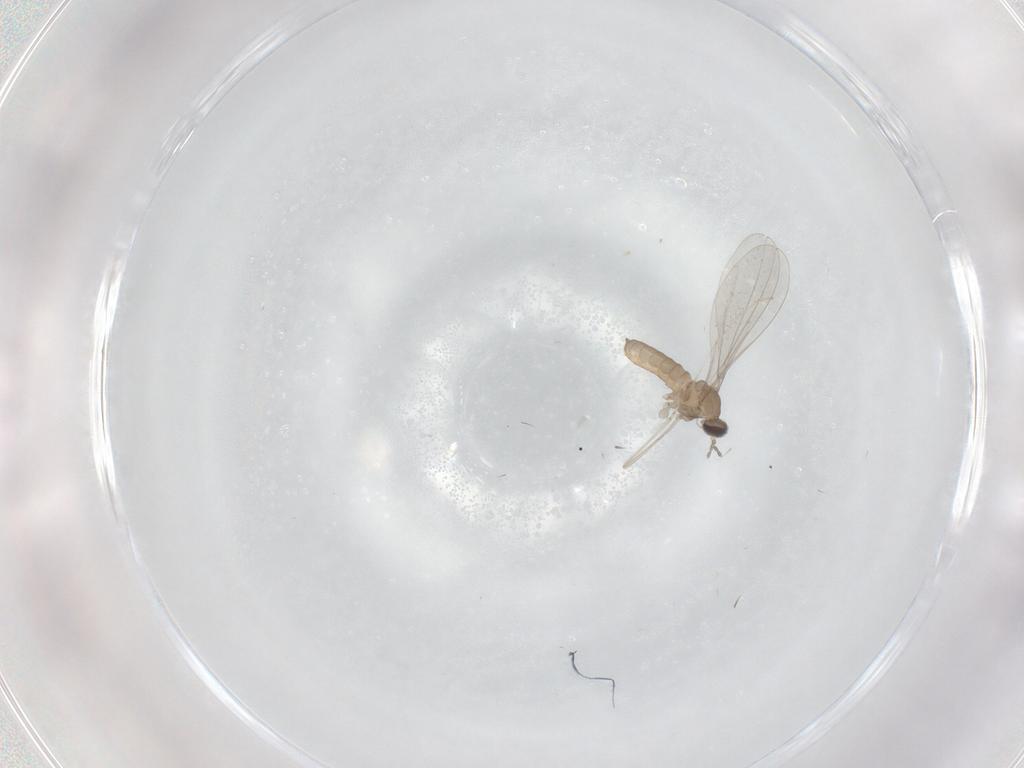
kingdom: Animalia
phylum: Arthropoda
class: Insecta
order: Diptera
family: Cecidomyiidae
